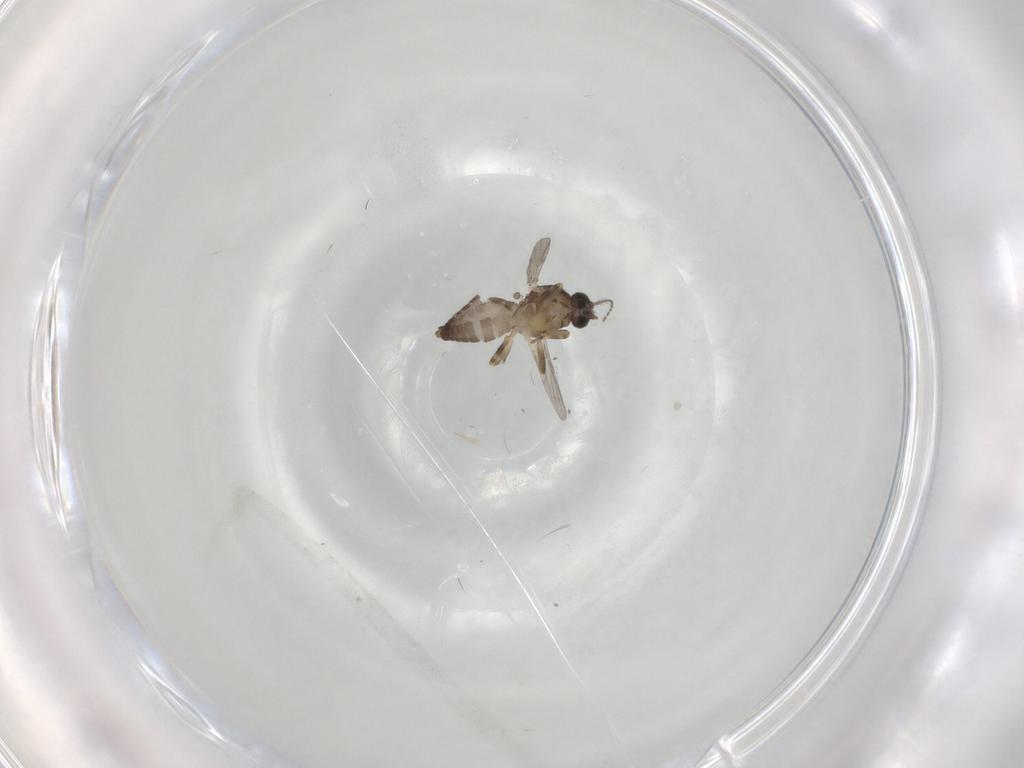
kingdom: Animalia
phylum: Arthropoda
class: Insecta
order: Diptera
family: Ceratopogonidae
